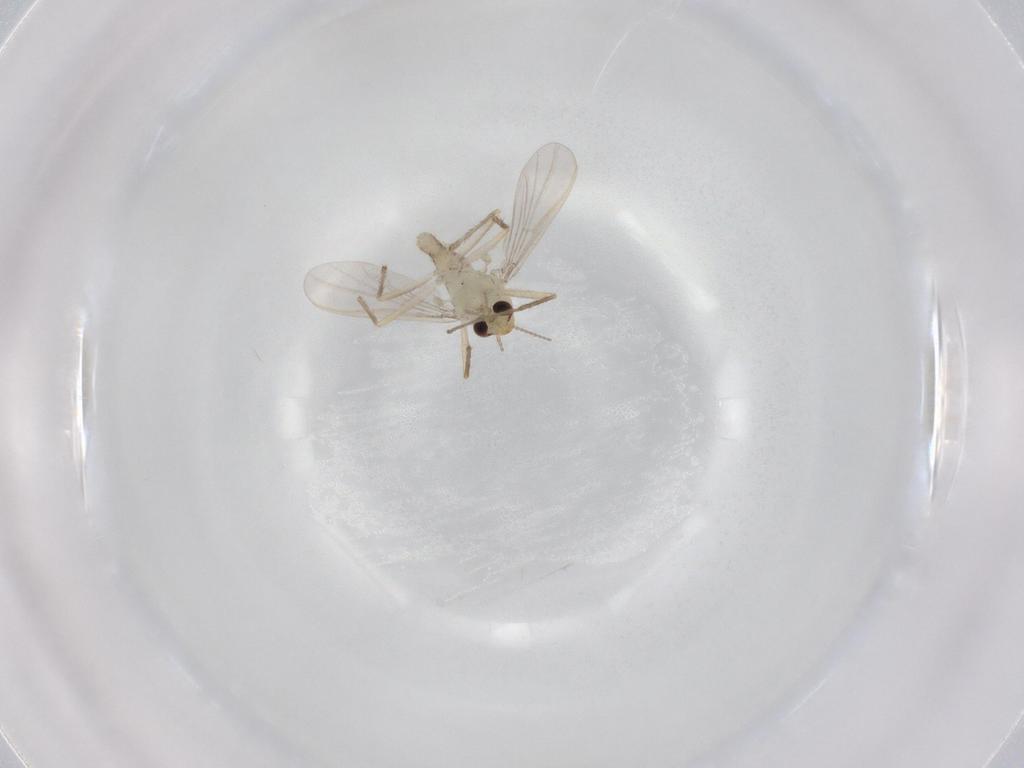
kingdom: Animalia
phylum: Arthropoda
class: Insecta
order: Diptera
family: Chironomidae
